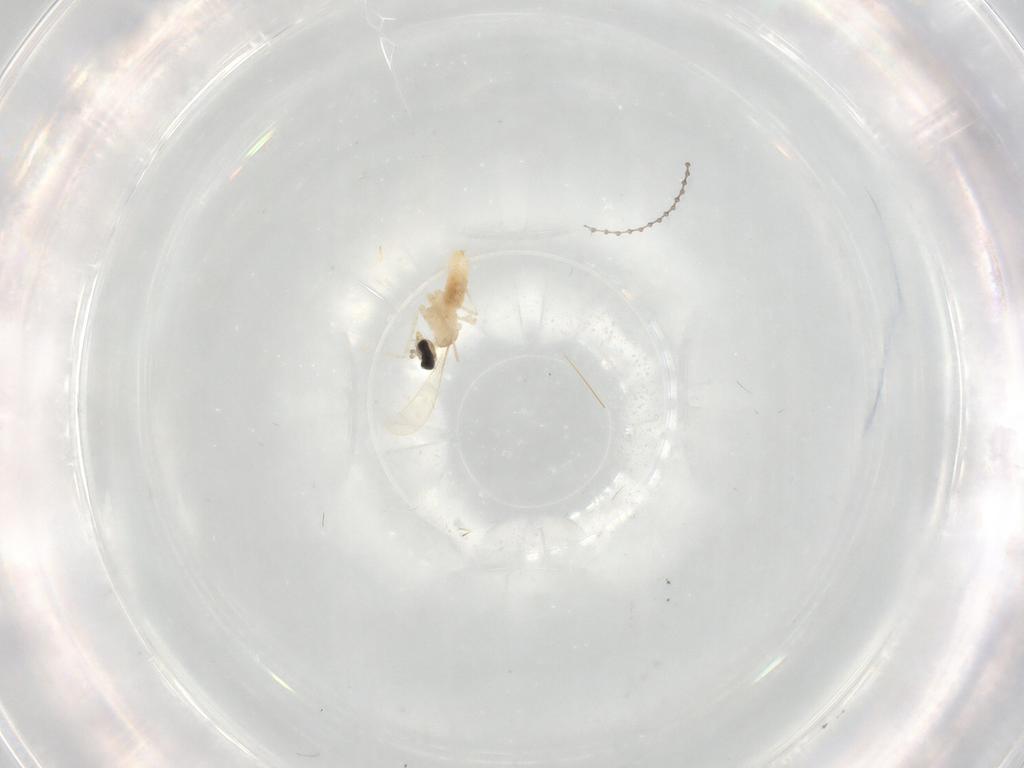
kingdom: Animalia
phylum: Arthropoda
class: Insecta
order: Diptera
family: Cecidomyiidae
